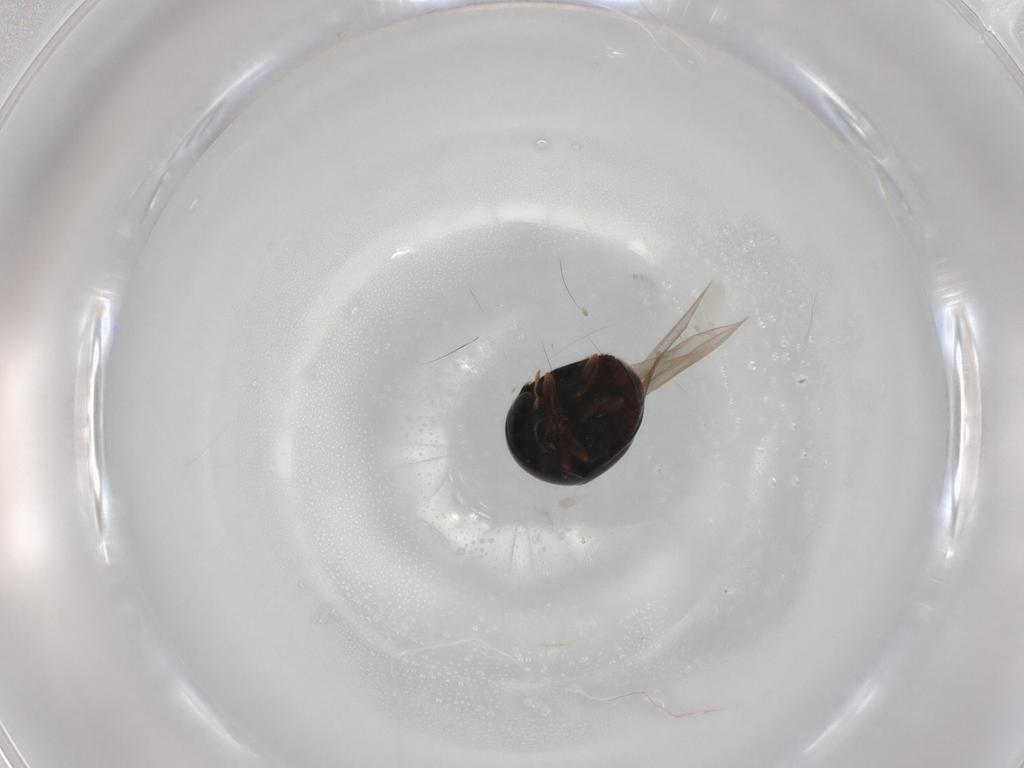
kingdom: Animalia
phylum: Arthropoda
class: Insecta
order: Coleoptera
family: Cybocephalidae
